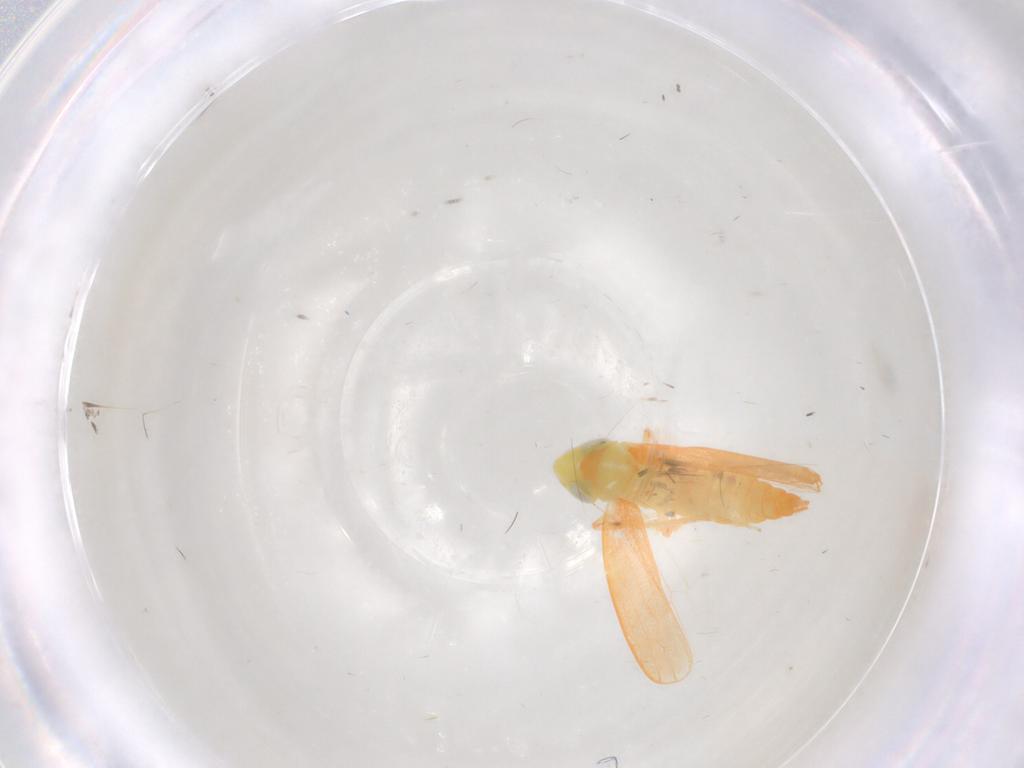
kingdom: Animalia
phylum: Arthropoda
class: Insecta
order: Hemiptera
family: Cicadellidae
